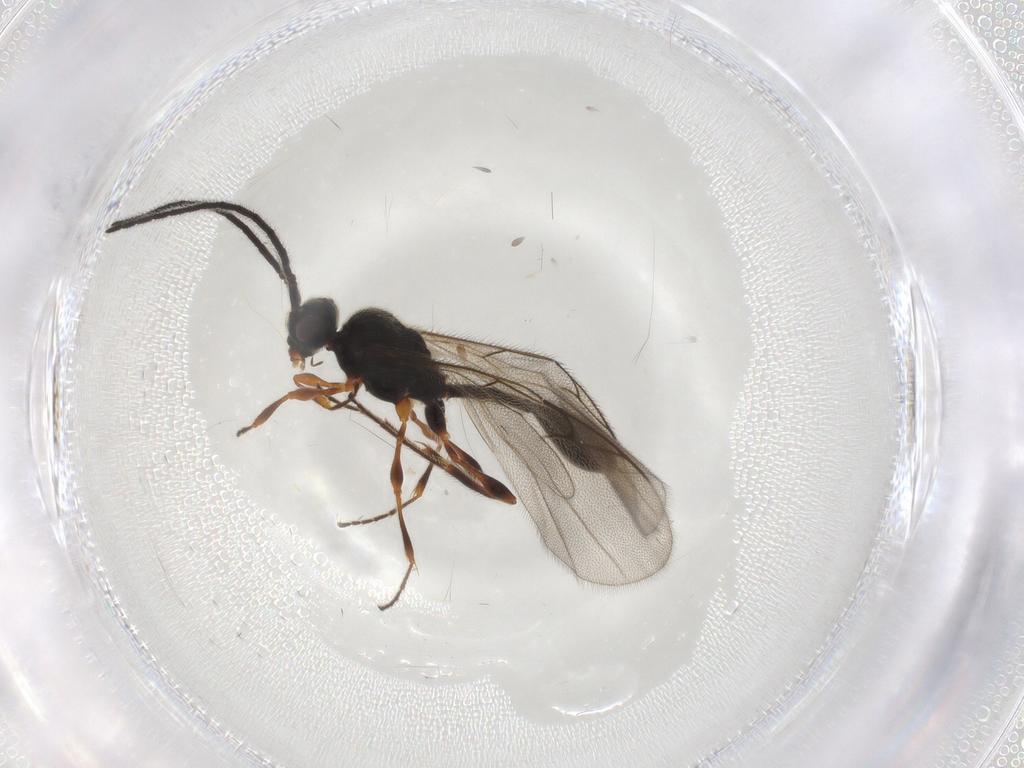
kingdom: Animalia
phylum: Arthropoda
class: Insecta
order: Hymenoptera
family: Diapriidae
